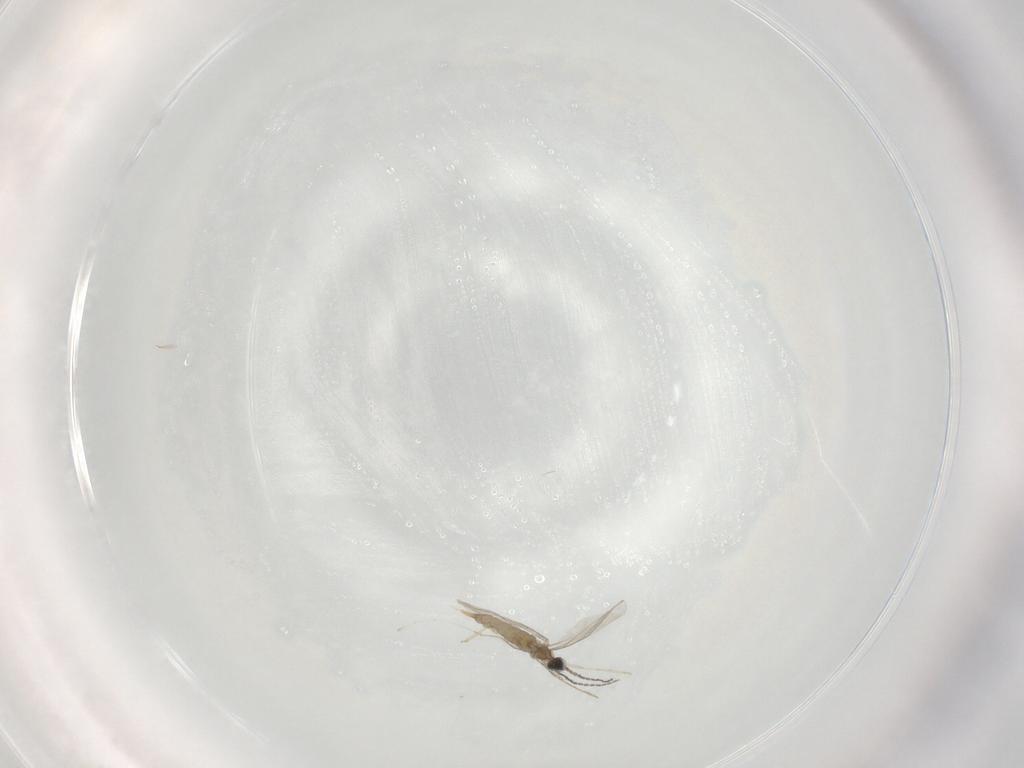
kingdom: Animalia
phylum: Arthropoda
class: Insecta
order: Diptera
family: Cecidomyiidae
